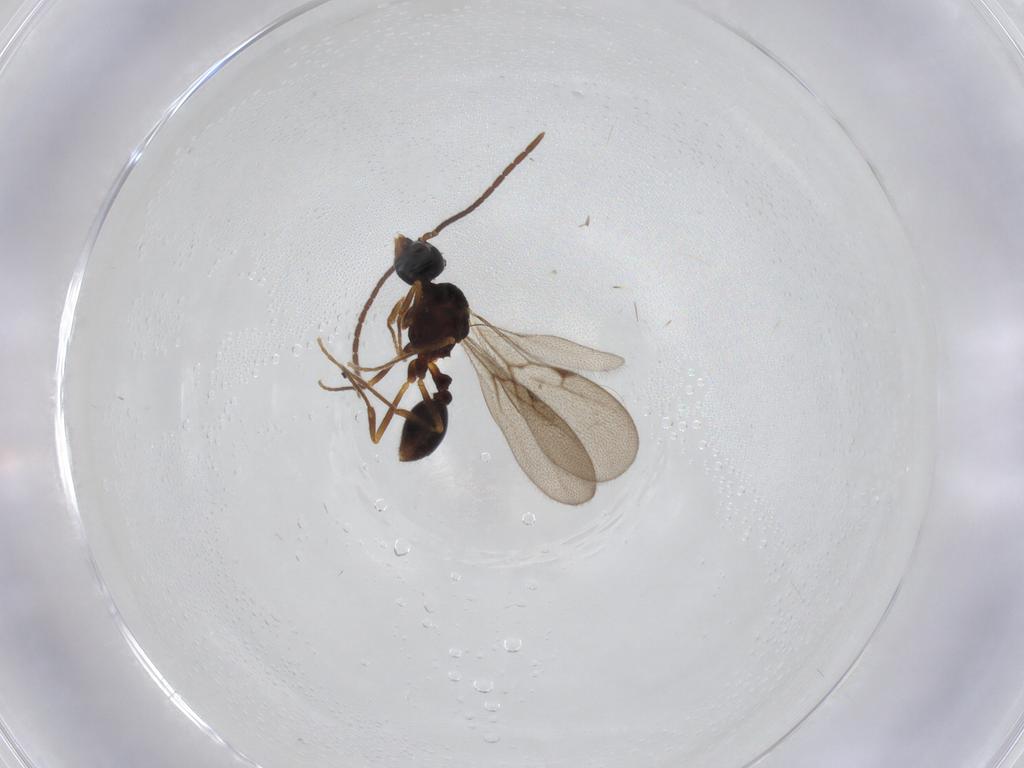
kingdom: Animalia
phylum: Arthropoda
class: Insecta
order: Hymenoptera
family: Formicidae
